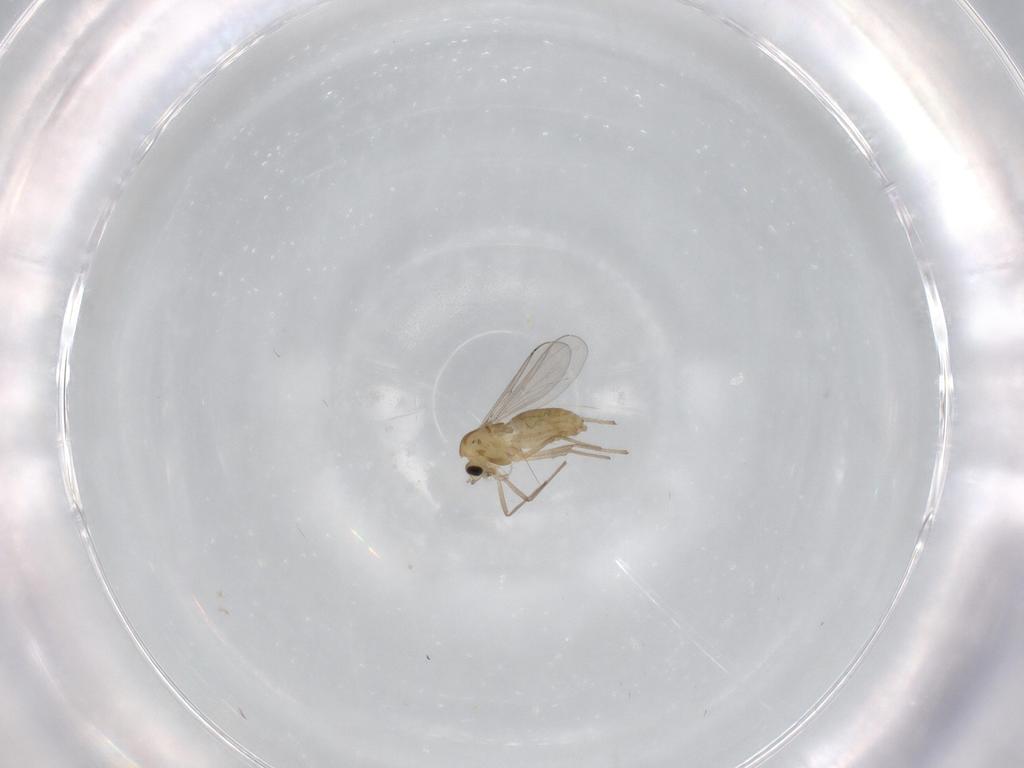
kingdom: Animalia
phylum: Arthropoda
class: Insecta
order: Diptera
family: Chironomidae
